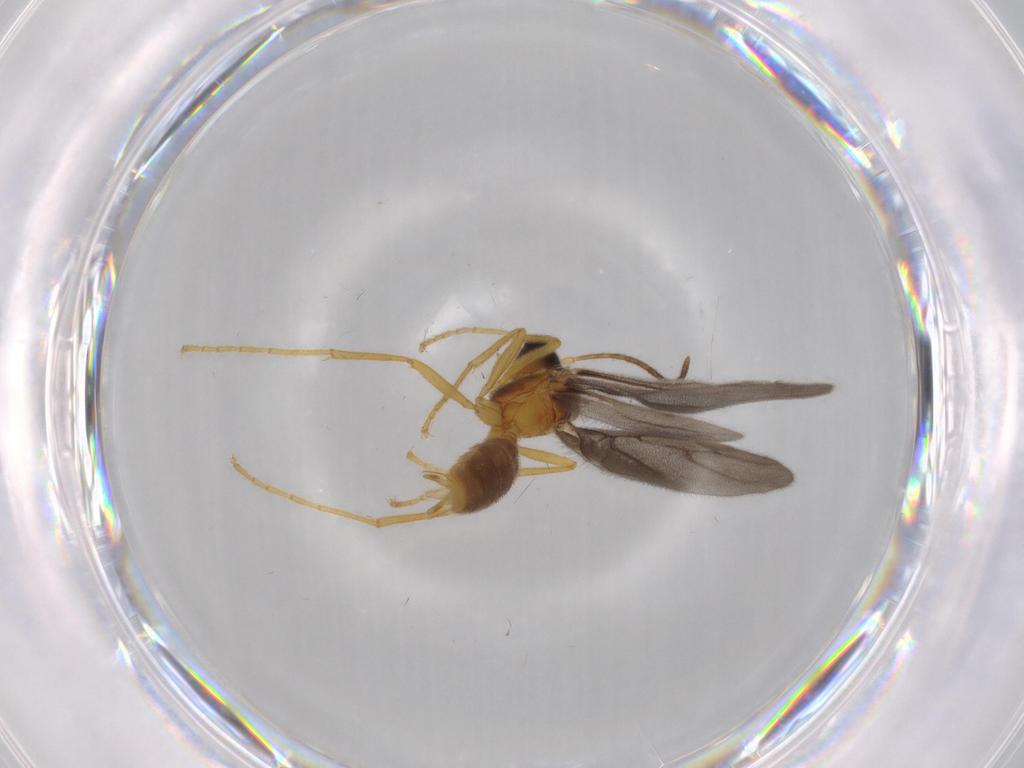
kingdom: Animalia
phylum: Arthropoda
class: Insecta
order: Hymenoptera
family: Formicidae
